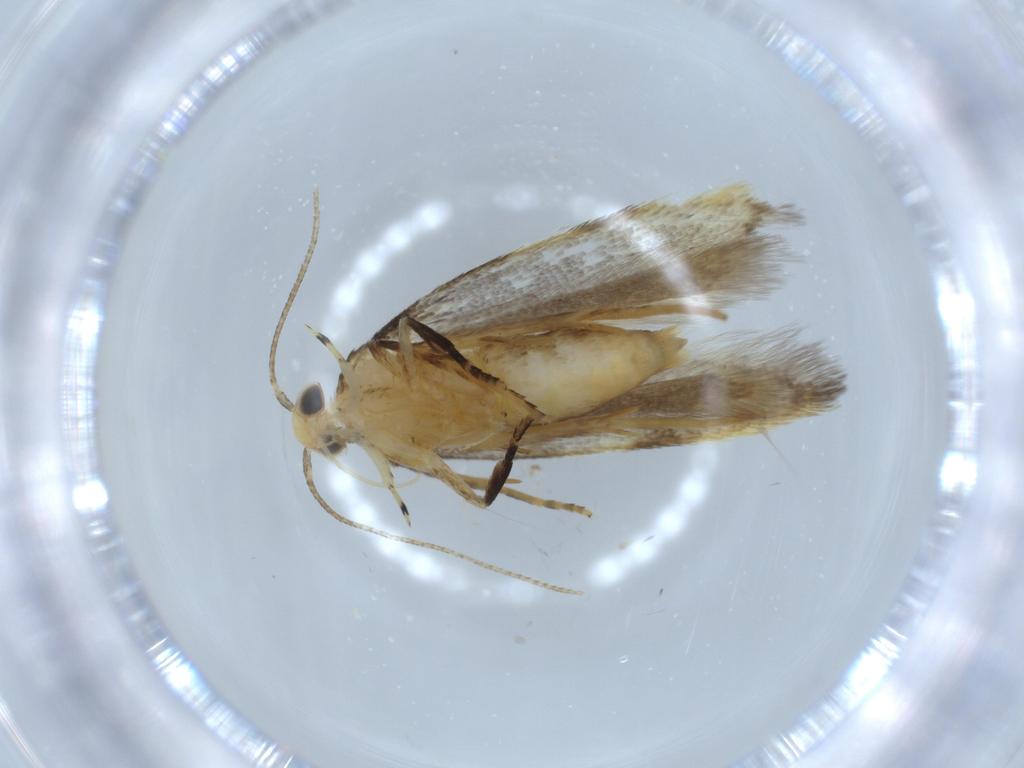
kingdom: Animalia
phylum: Arthropoda
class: Insecta
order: Lepidoptera
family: Autostichidae
